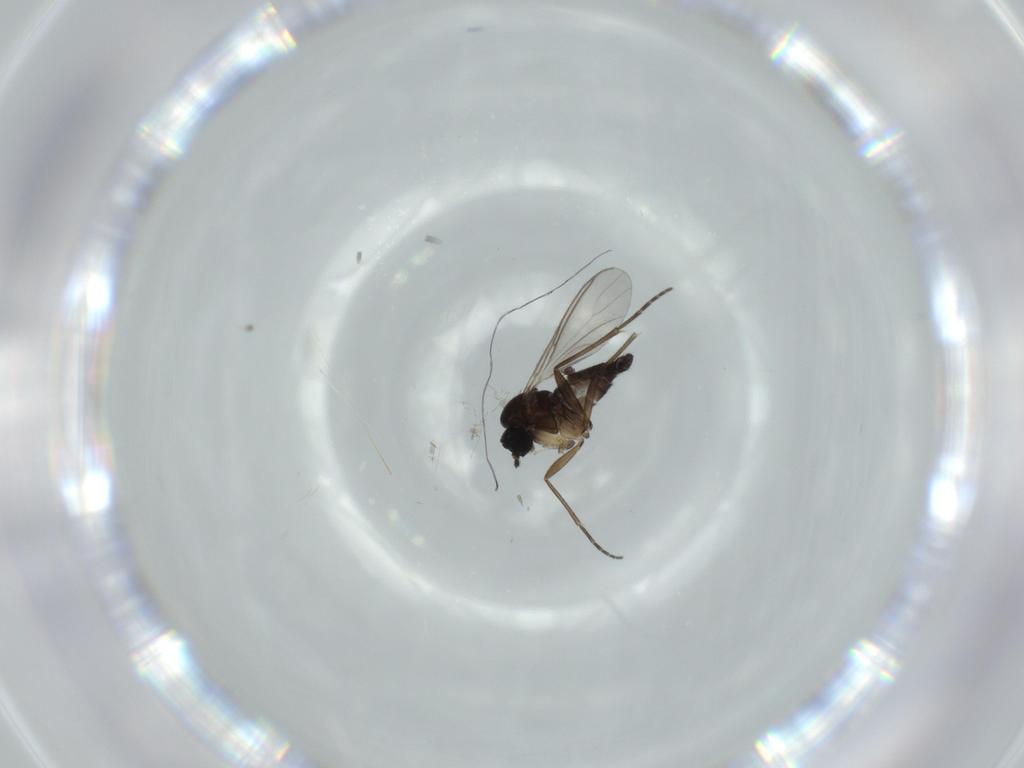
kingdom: Animalia
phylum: Arthropoda
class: Insecta
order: Diptera
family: Sciaridae
